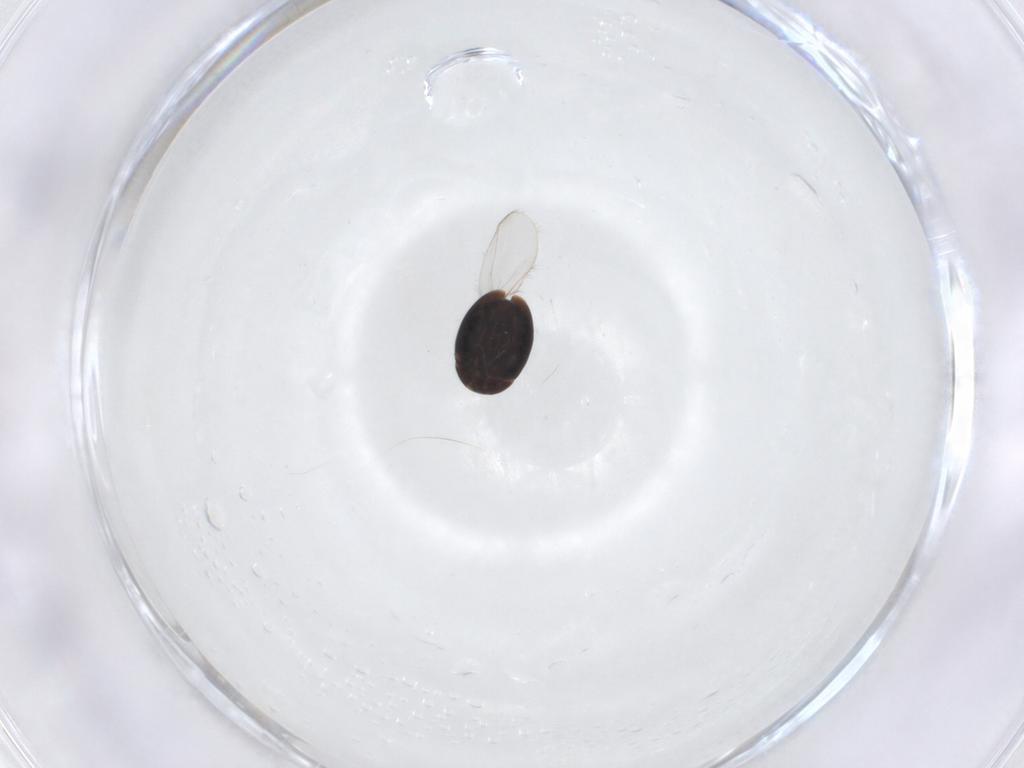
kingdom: Animalia
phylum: Arthropoda
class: Insecta
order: Coleoptera
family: Corylophidae
